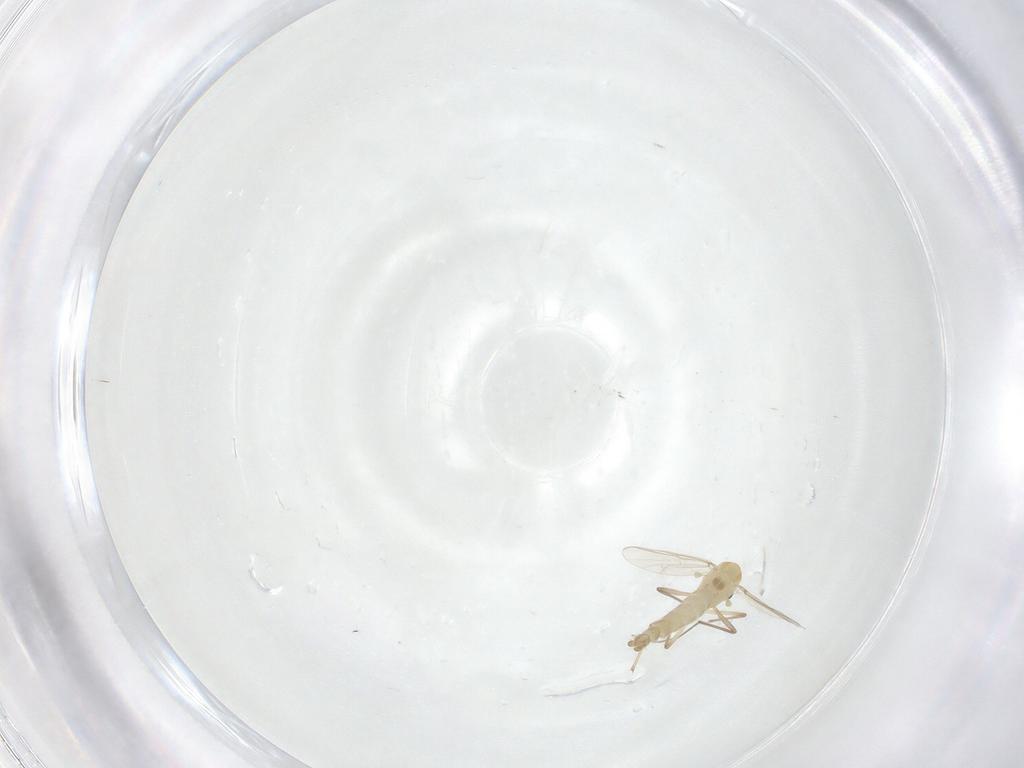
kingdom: Animalia
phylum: Arthropoda
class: Insecta
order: Diptera
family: Chironomidae
